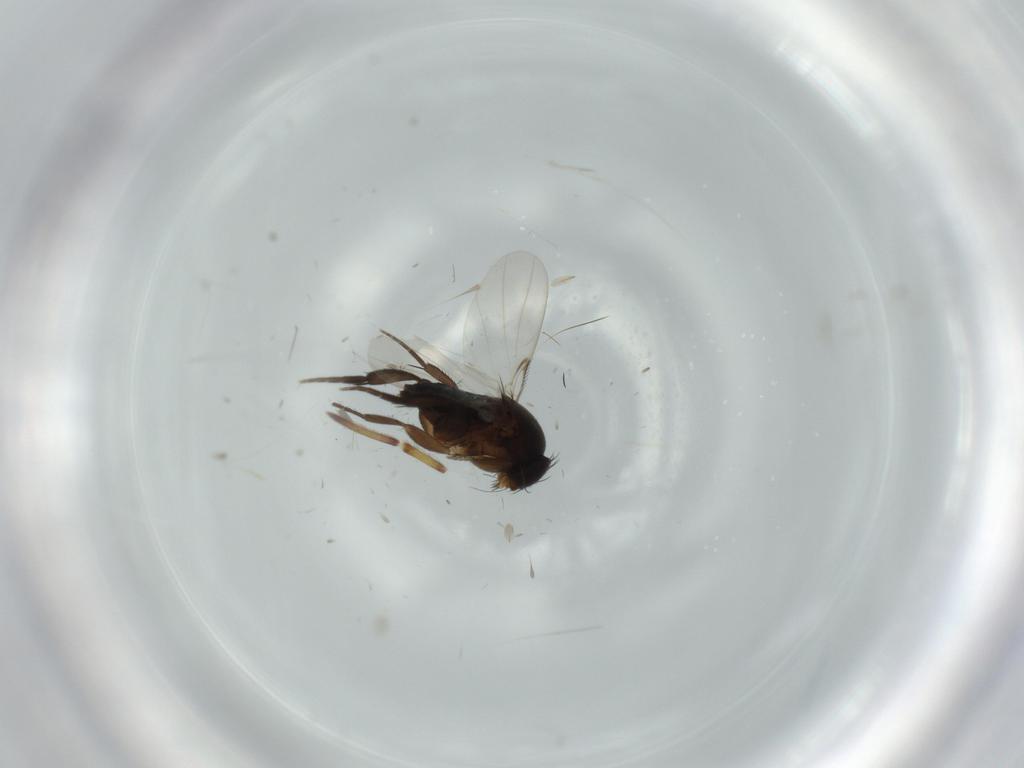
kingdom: Animalia
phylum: Arthropoda
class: Insecta
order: Diptera
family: Phoridae
